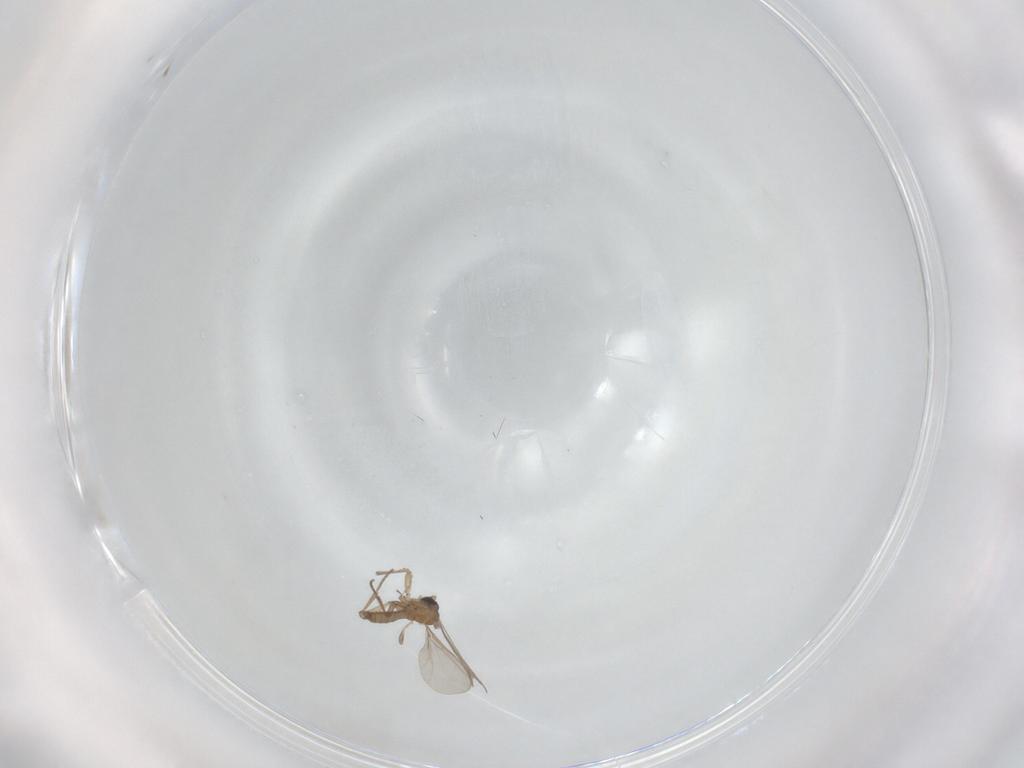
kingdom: Animalia
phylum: Arthropoda
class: Insecta
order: Diptera
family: Cecidomyiidae
